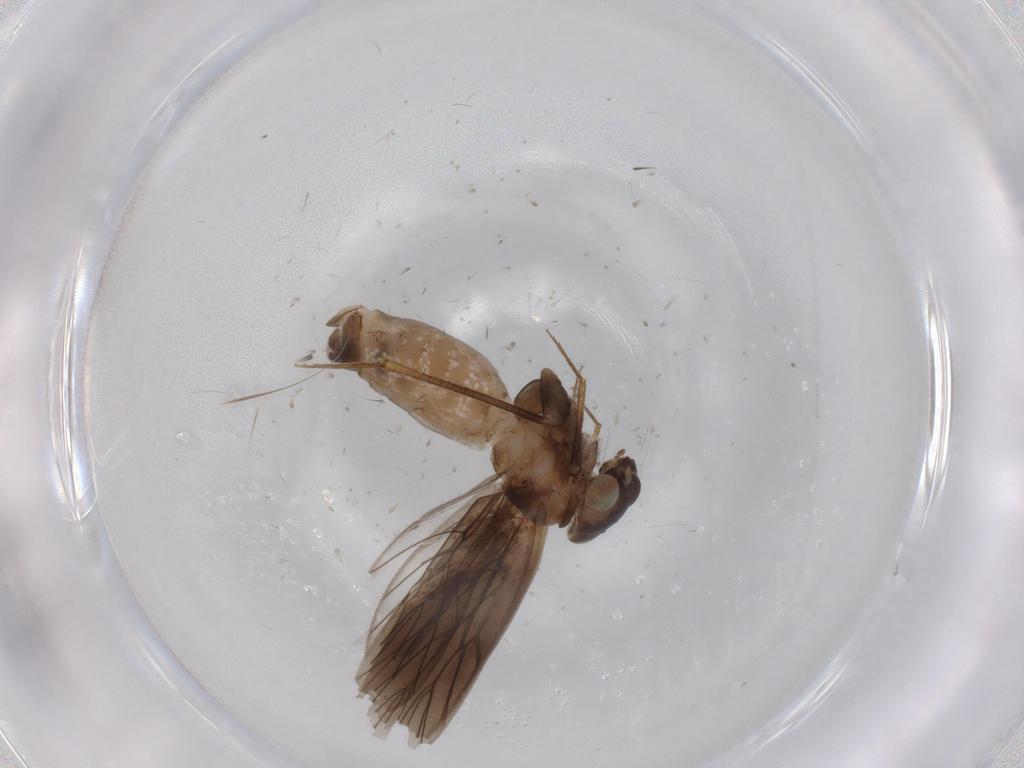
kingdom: Animalia
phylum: Arthropoda
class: Insecta
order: Psocodea
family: Lepidopsocidae
